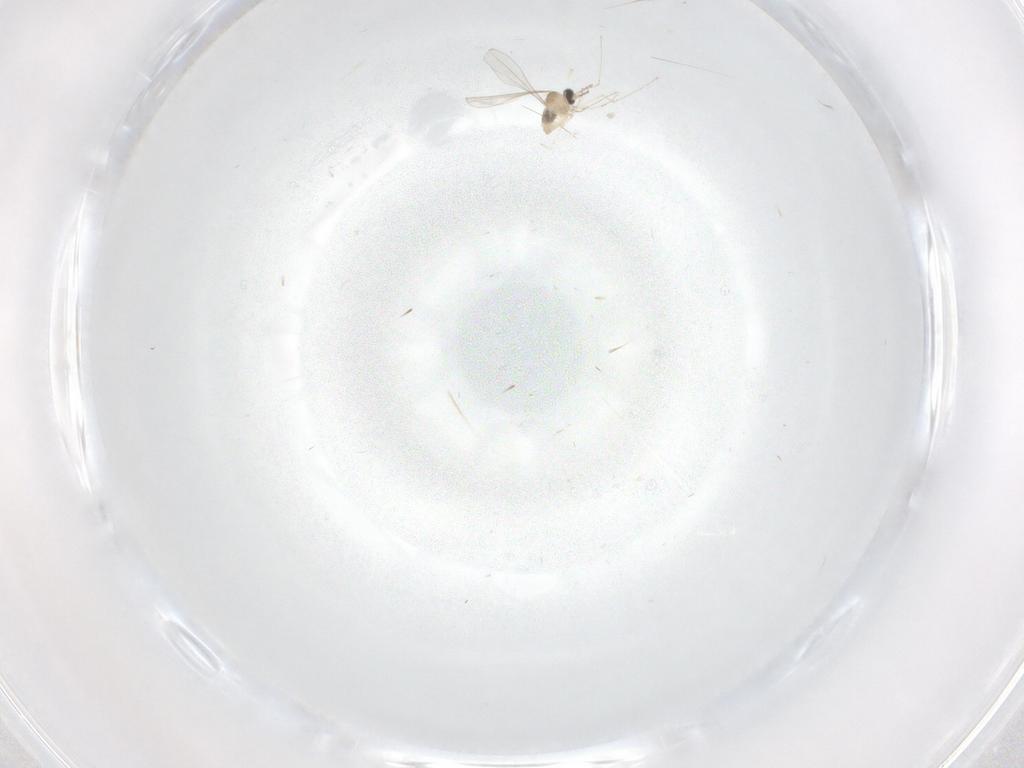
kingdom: Animalia
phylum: Arthropoda
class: Insecta
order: Diptera
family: Cecidomyiidae
